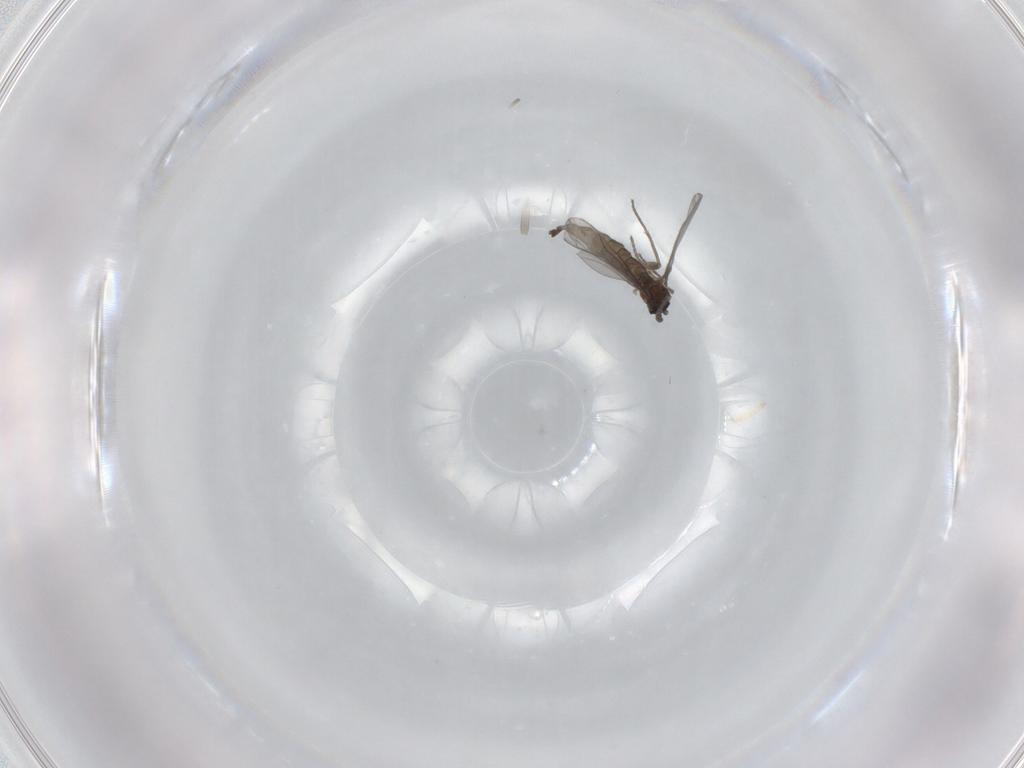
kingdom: Animalia
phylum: Arthropoda
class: Insecta
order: Diptera
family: Sciaridae
